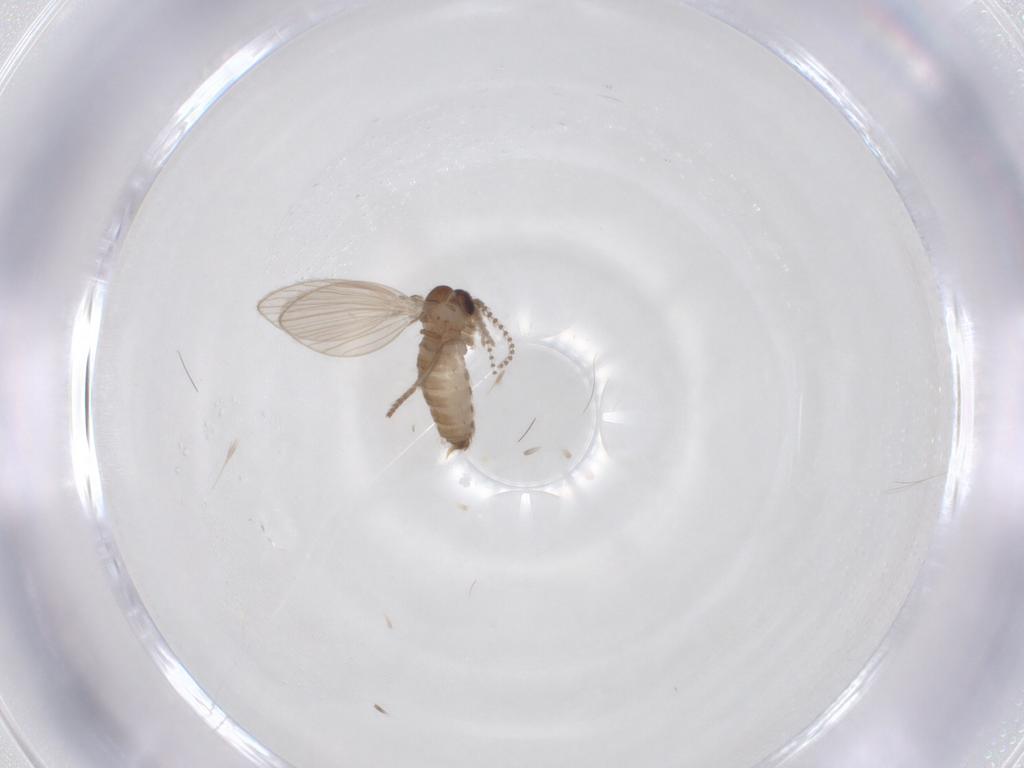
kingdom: Animalia
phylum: Arthropoda
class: Insecta
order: Diptera
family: Psychodidae
